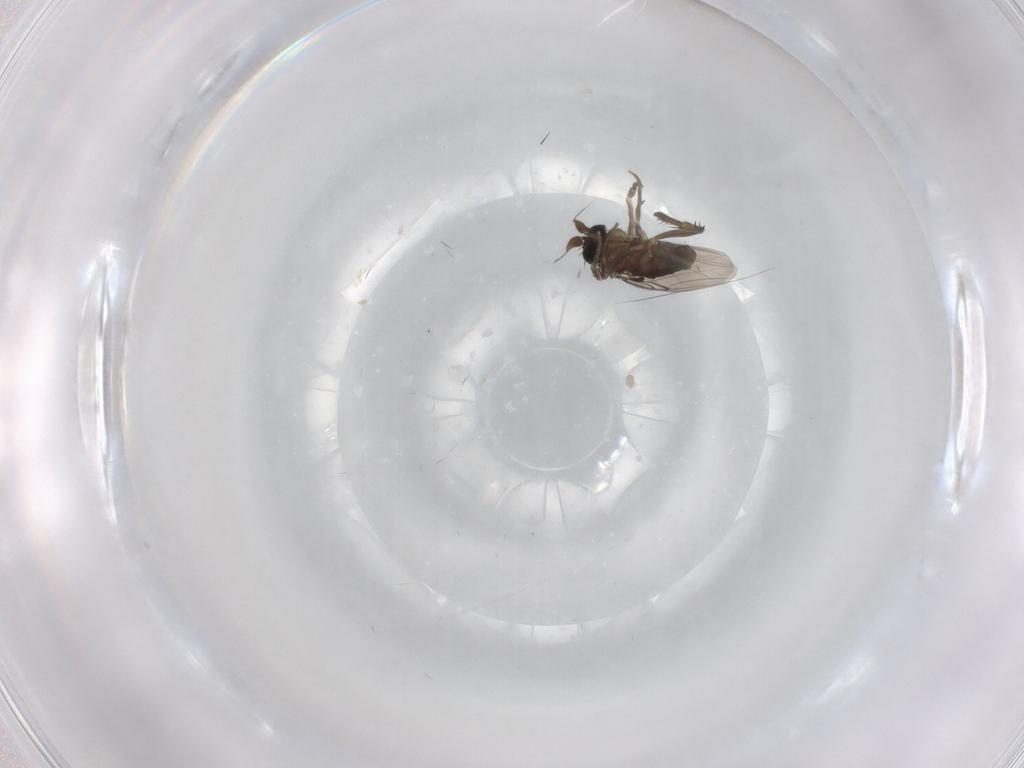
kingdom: Animalia
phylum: Arthropoda
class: Insecta
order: Diptera
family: Phoridae
